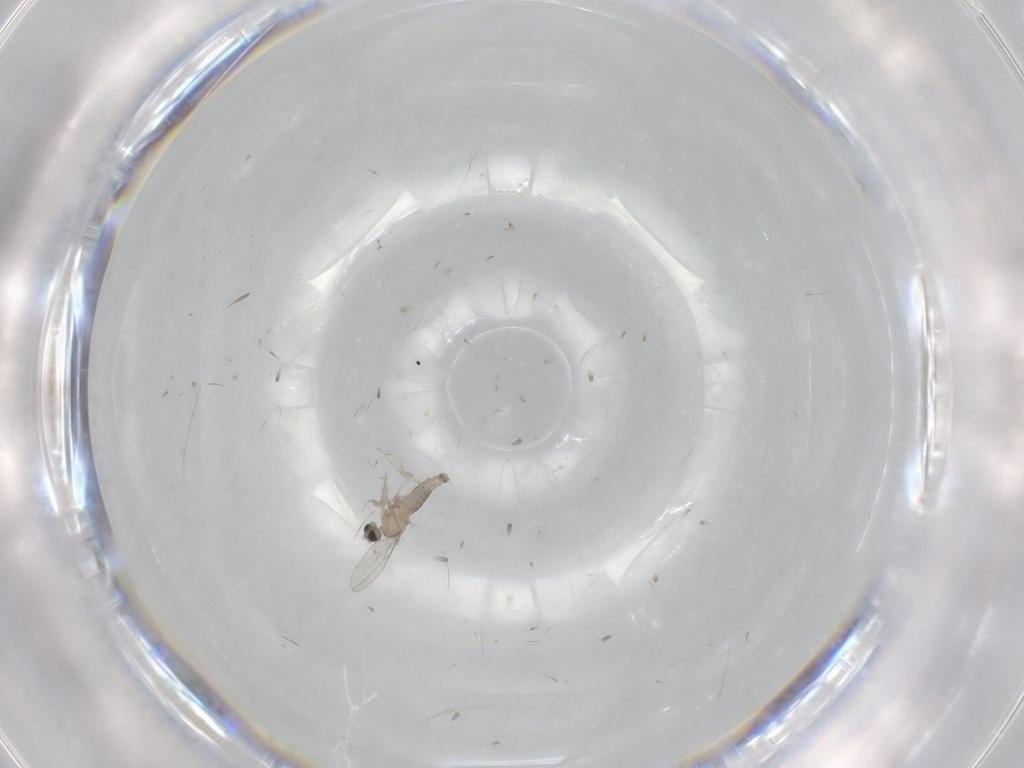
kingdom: Animalia
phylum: Arthropoda
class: Insecta
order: Diptera
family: Cecidomyiidae
